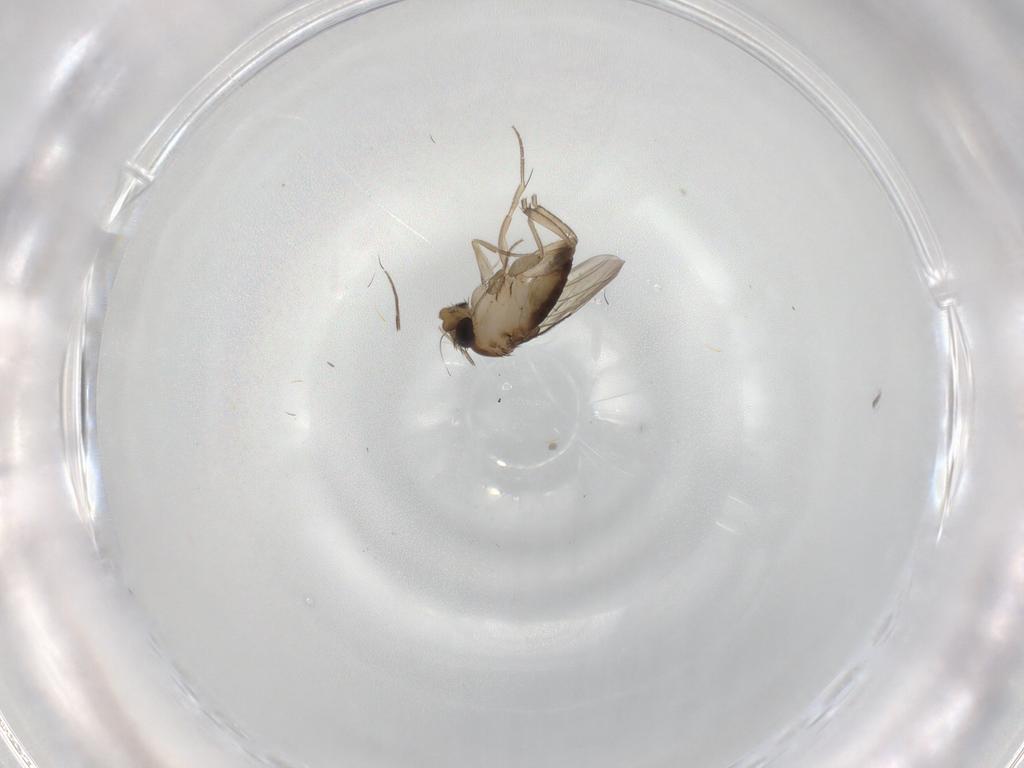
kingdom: Animalia
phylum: Arthropoda
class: Insecta
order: Diptera
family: Phoridae
